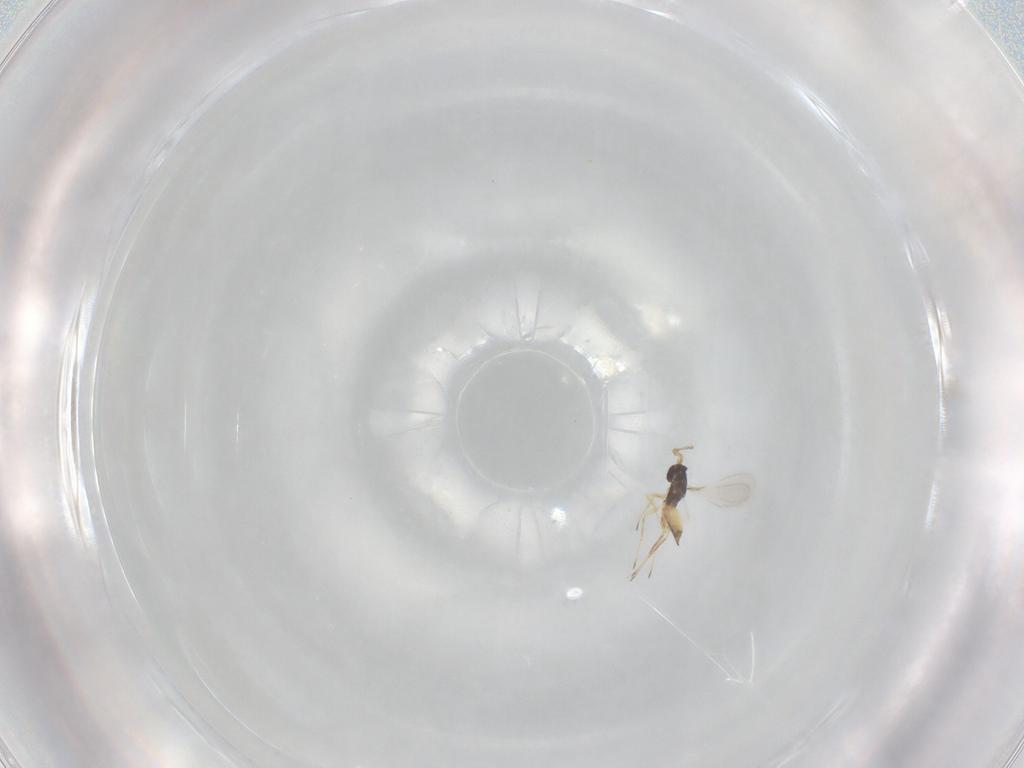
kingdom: Animalia
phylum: Arthropoda
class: Insecta
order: Hymenoptera
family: Mymaridae
